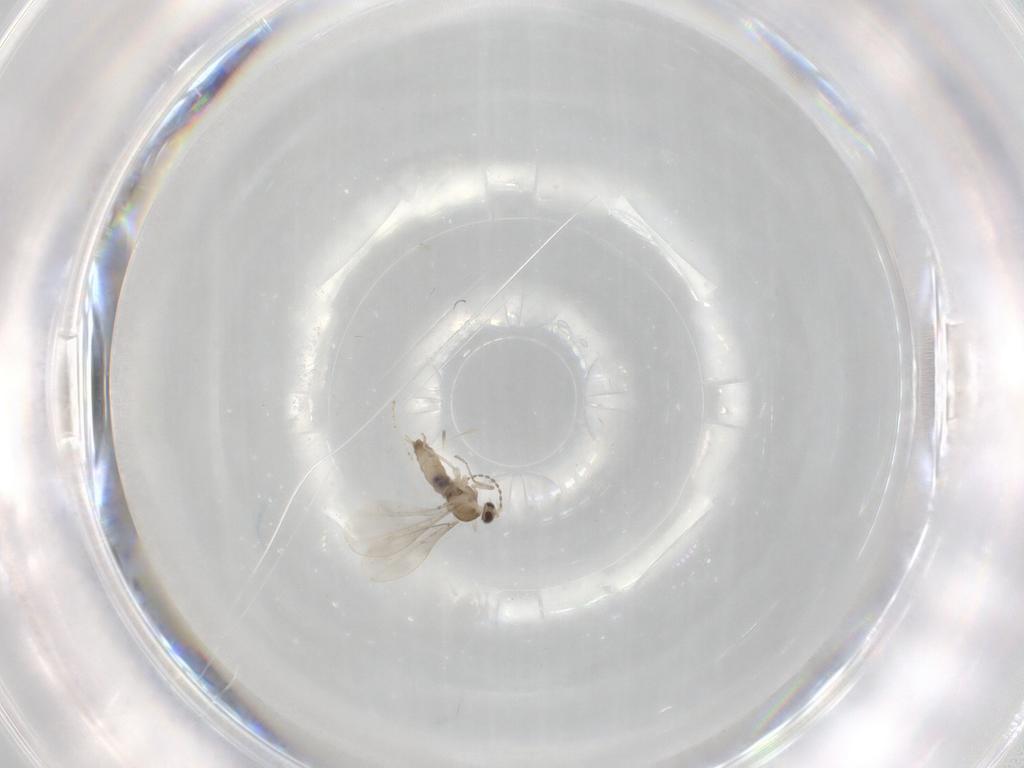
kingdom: Animalia
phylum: Arthropoda
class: Insecta
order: Diptera
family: Cecidomyiidae
